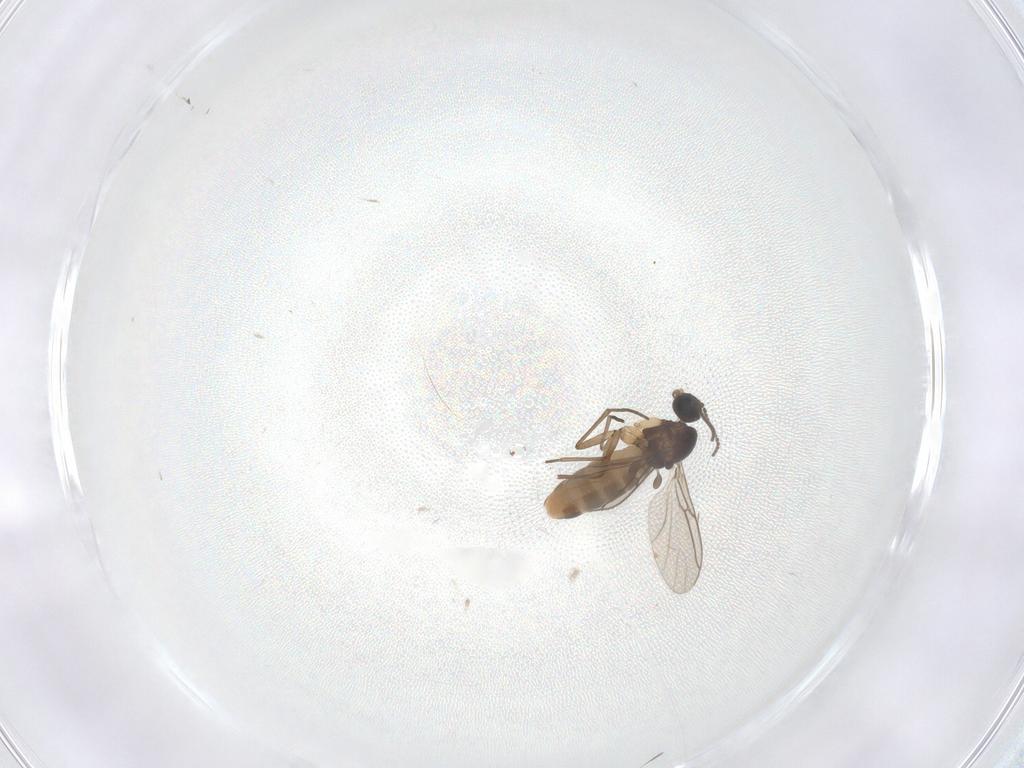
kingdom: Animalia
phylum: Arthropoda
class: Insecta
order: Diptera
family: Sciaridae
